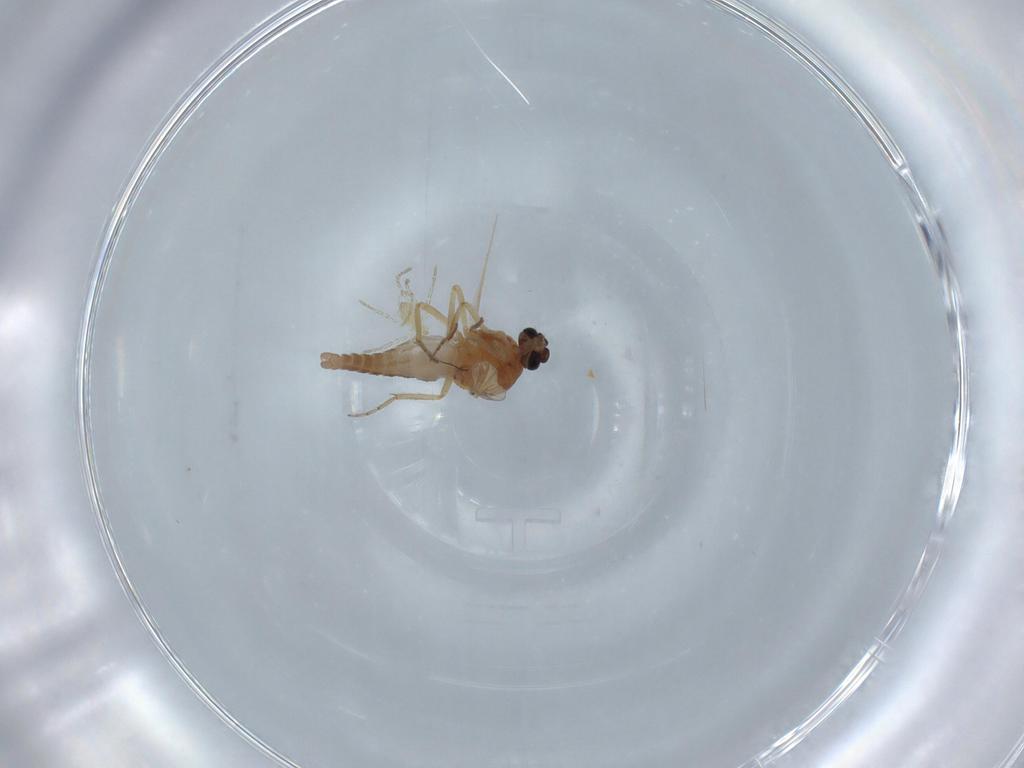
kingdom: Animalia
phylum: Arthropoda
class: Insecta
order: Diptera
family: Ceratopogonidae
